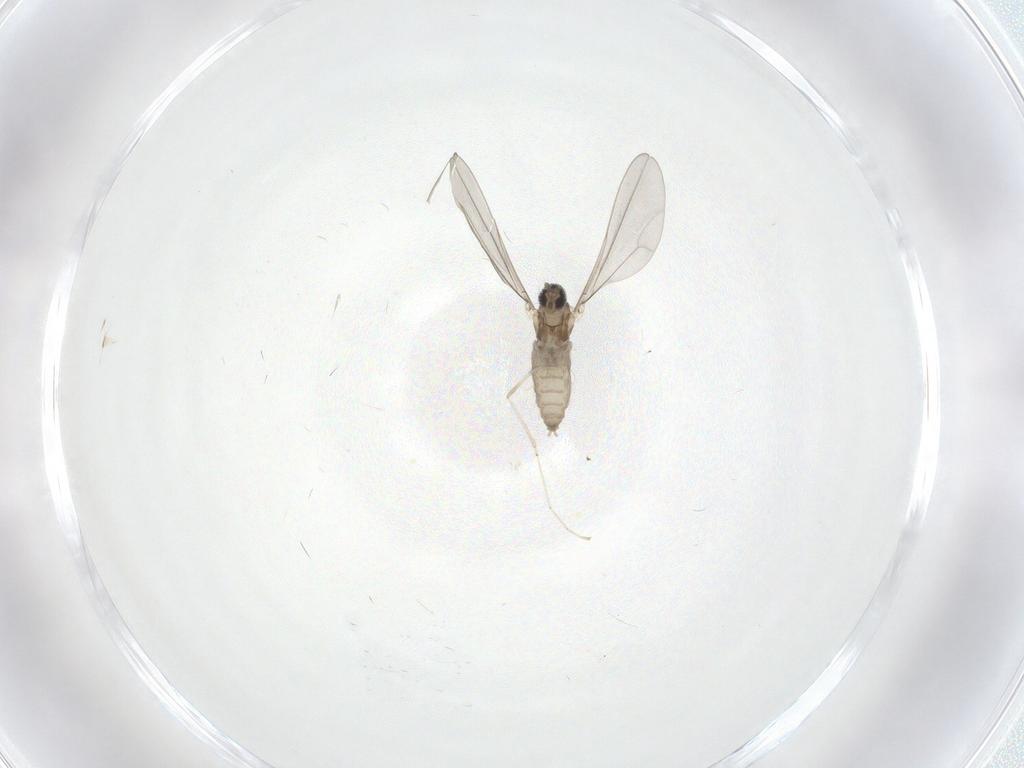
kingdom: Animalia
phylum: Arthropoda
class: Insecta
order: Diptera
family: Cecidomyiidae
